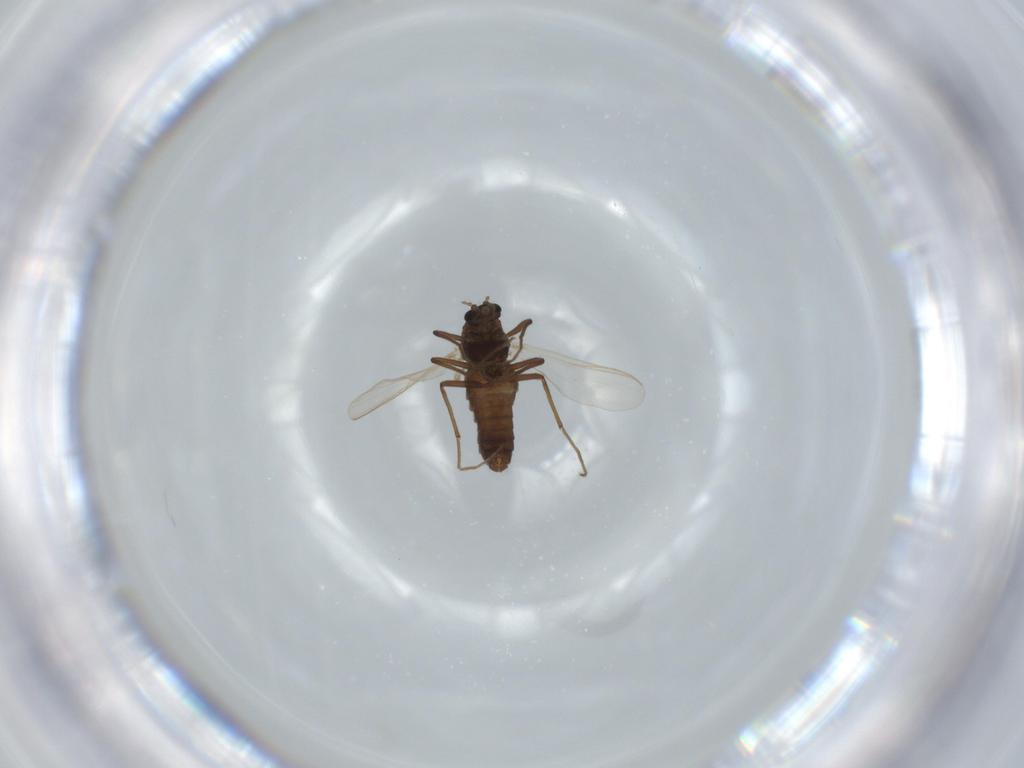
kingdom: Animalia
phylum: Arthropoda
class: Insecta
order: Diptera
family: Chironomidae
